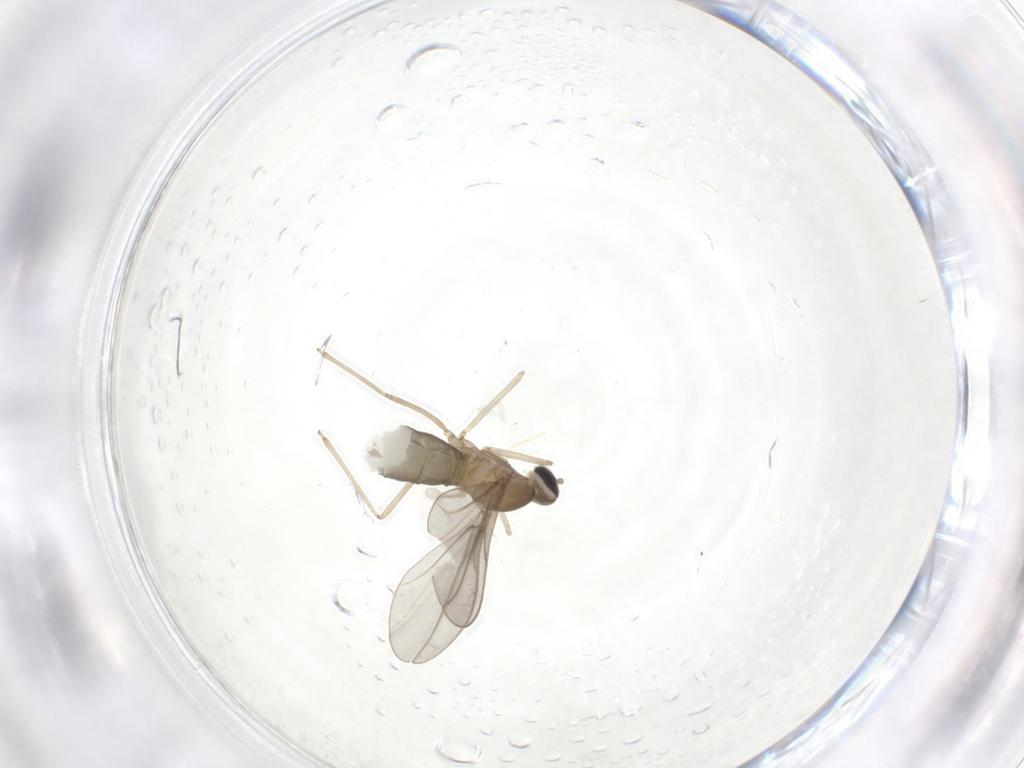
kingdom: Animalia
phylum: Arthropoda
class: Insecta
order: Diptera
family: Cecidomyiidae
